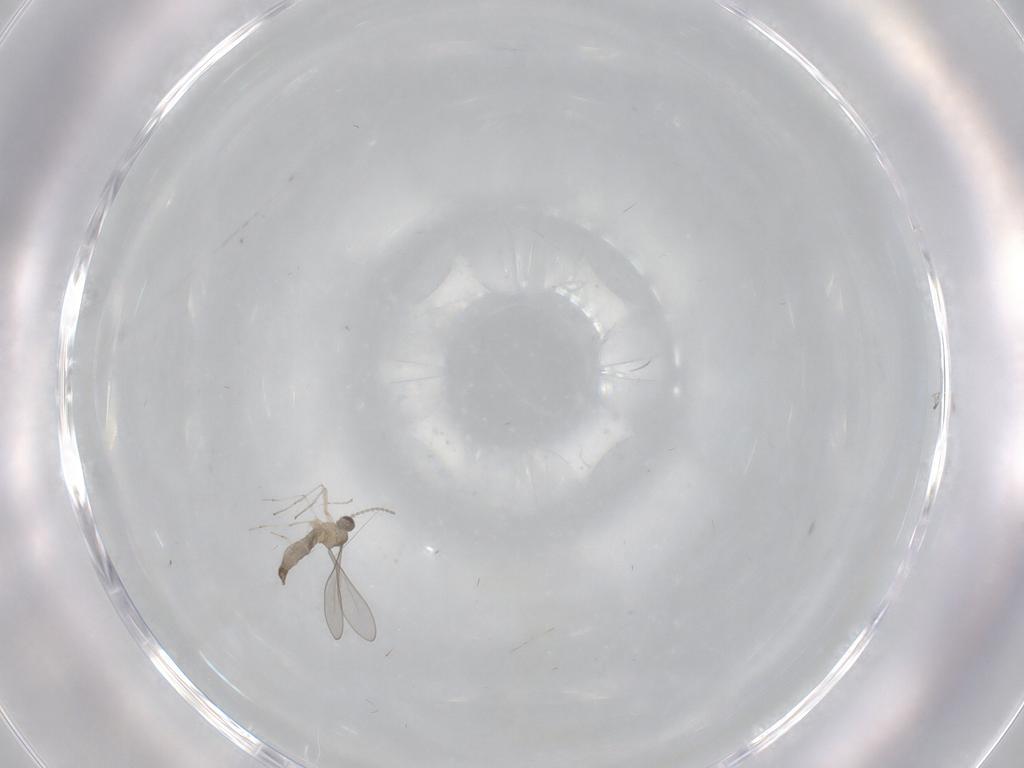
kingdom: Animalia
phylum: Arthropoda
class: Insecta
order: Diptera
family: Cecidomyiidae
